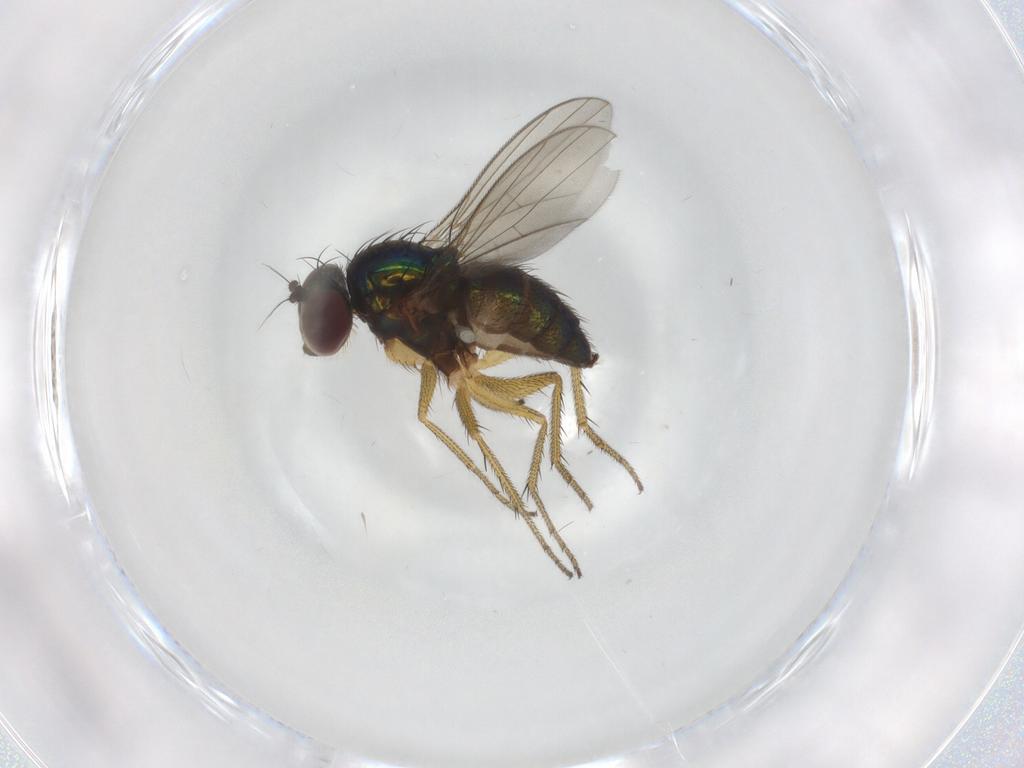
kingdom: Animalia
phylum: Arthropoda
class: Insecta
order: Diptera
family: Dolichopodidae
